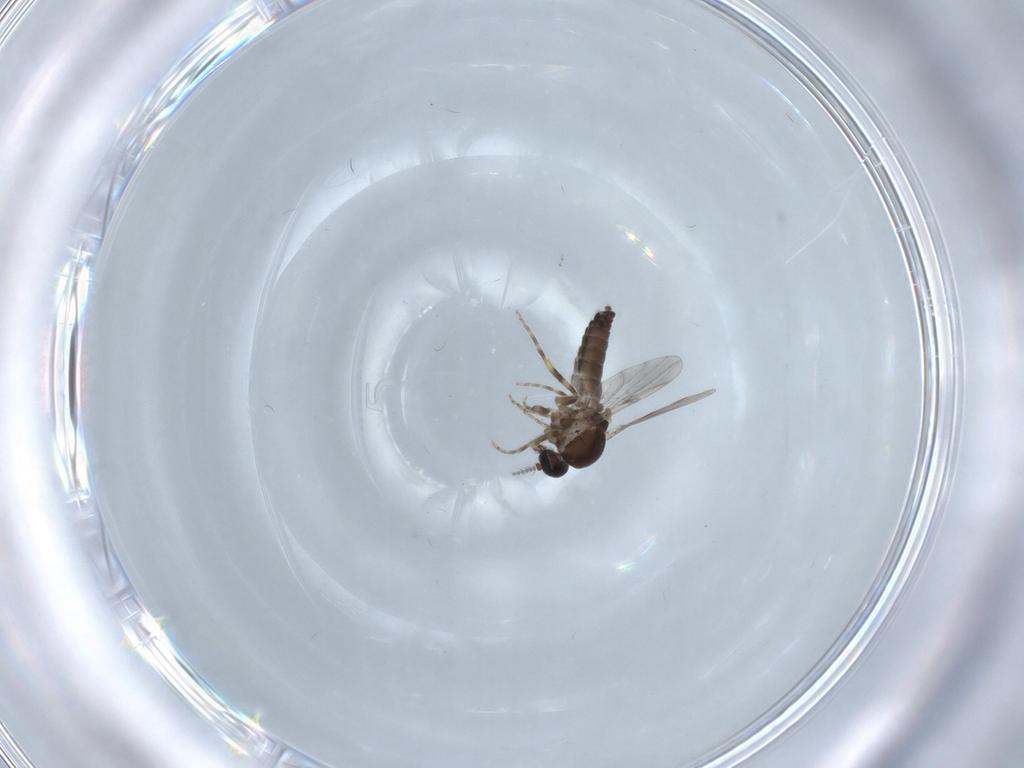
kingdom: Animalia
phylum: Arthropoda
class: Insecta
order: Diptera
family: Ceratopogonidae
